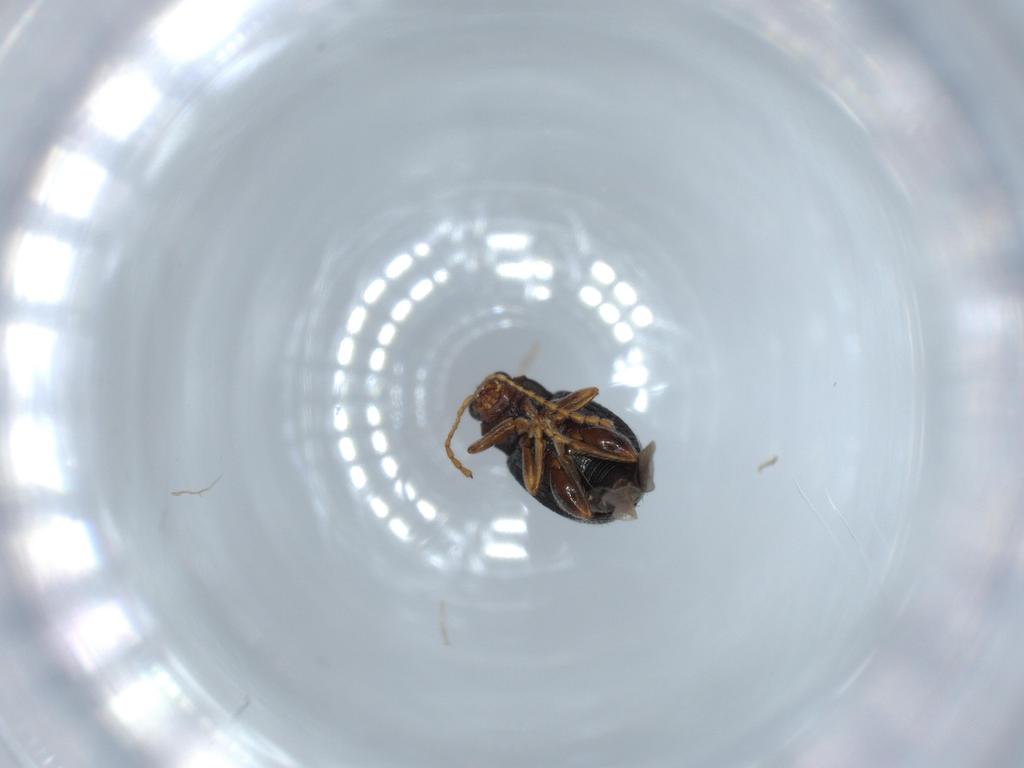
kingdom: Animalia
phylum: Arthropoda
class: Insecta
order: Coleoptera
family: Chrysomelidae
